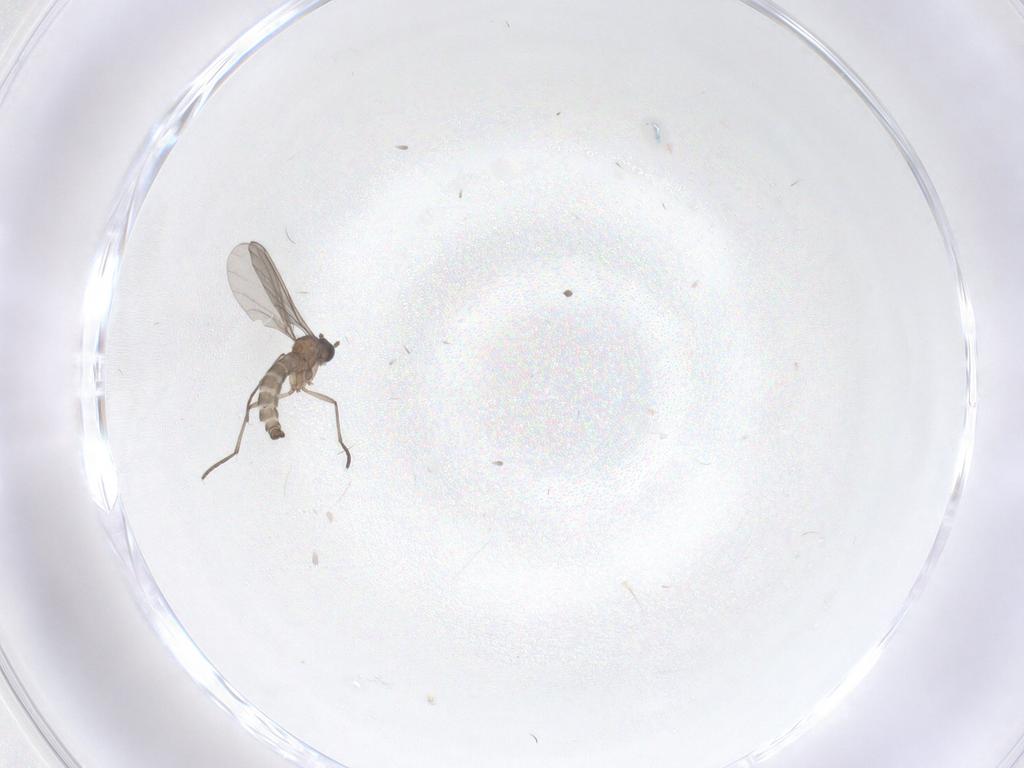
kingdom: Animalia
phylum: Arthropoda
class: Insecta
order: Diptera
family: Sciaridae
